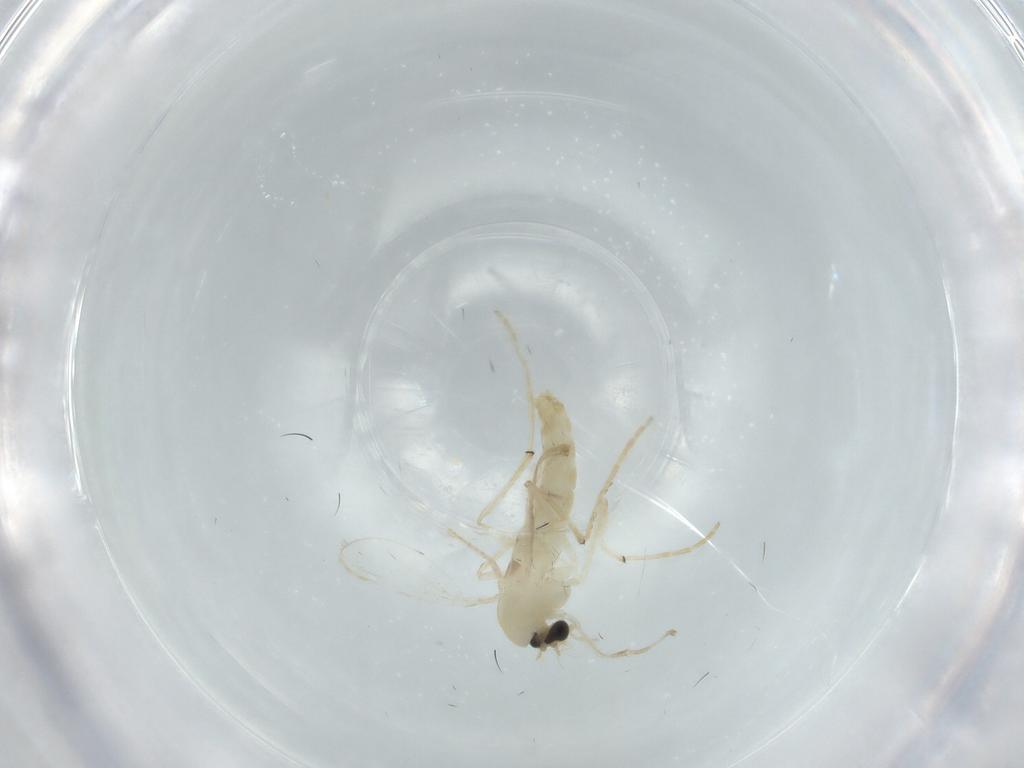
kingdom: Animalia
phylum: Arthropoda
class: Insecta
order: Diptera
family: Chironomidae
